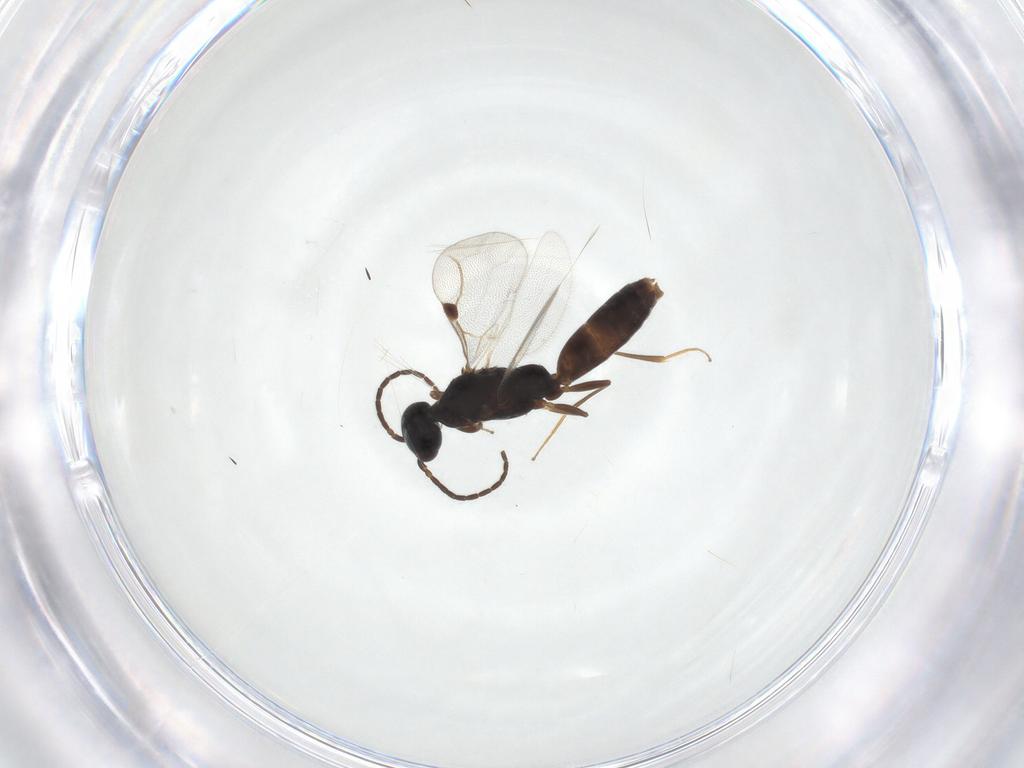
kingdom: Animalia
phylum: Arthropoda
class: Insecta
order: Hymenoptera
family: Bethylidae
